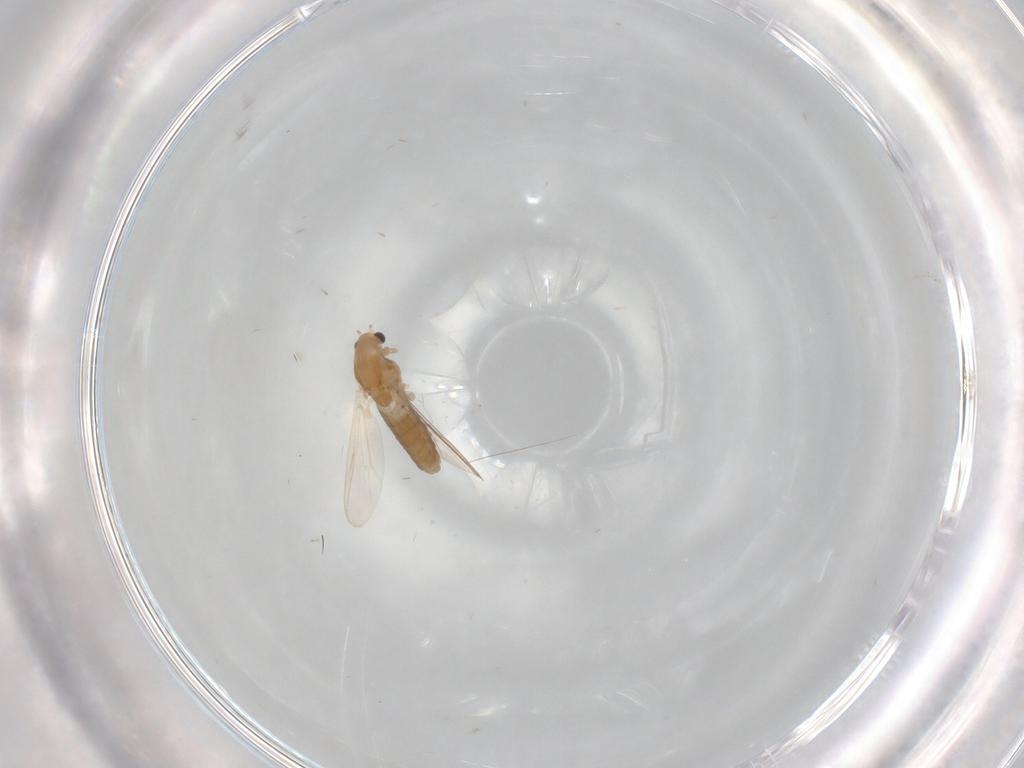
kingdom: Animalia
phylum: Arthropoda
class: Insecta
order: Diptera
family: Chironomidae
